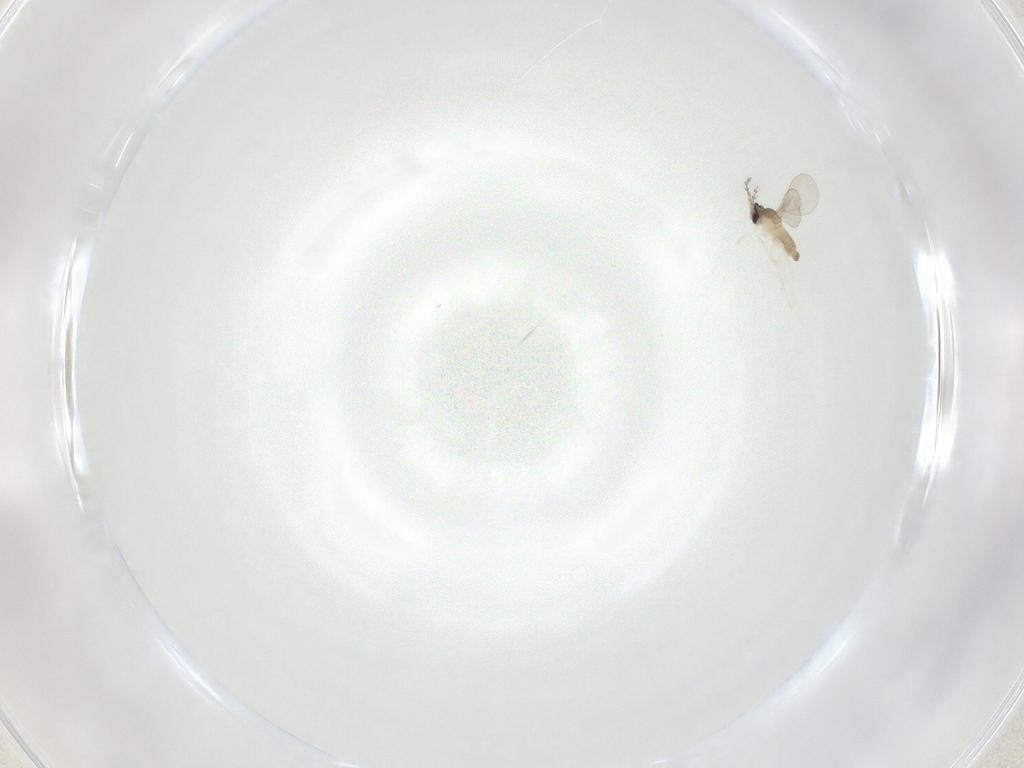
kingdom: Animalia
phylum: Arthropoda
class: Insecta
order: Diptera
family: Cecidomyiidae
